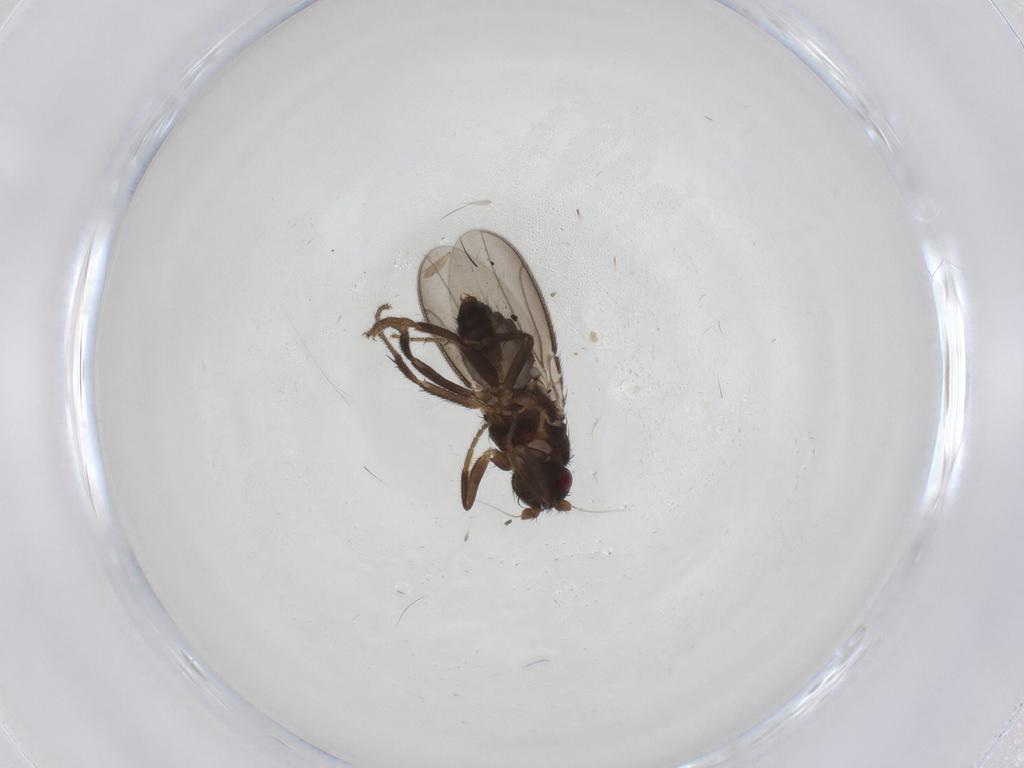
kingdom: Animalia
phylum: Arthropoda
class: Insecta
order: Diptera
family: Sphaeroceridae
